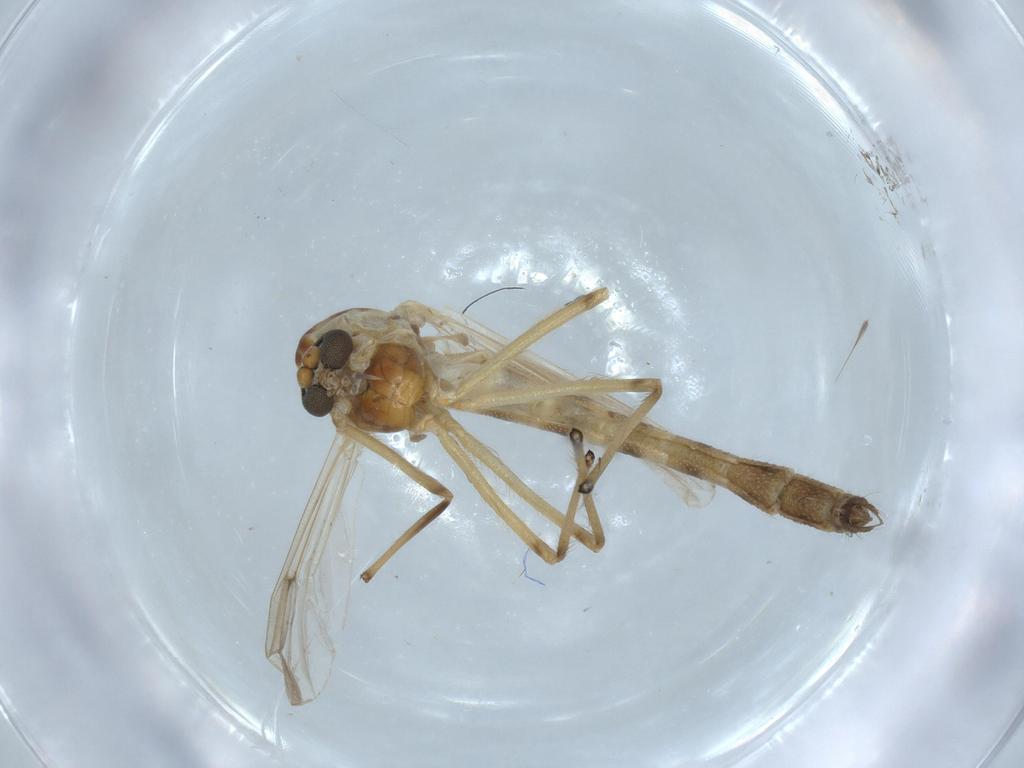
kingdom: Animalia
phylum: Arthropoda
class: Insecta
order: Diptera
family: Chironomidae
